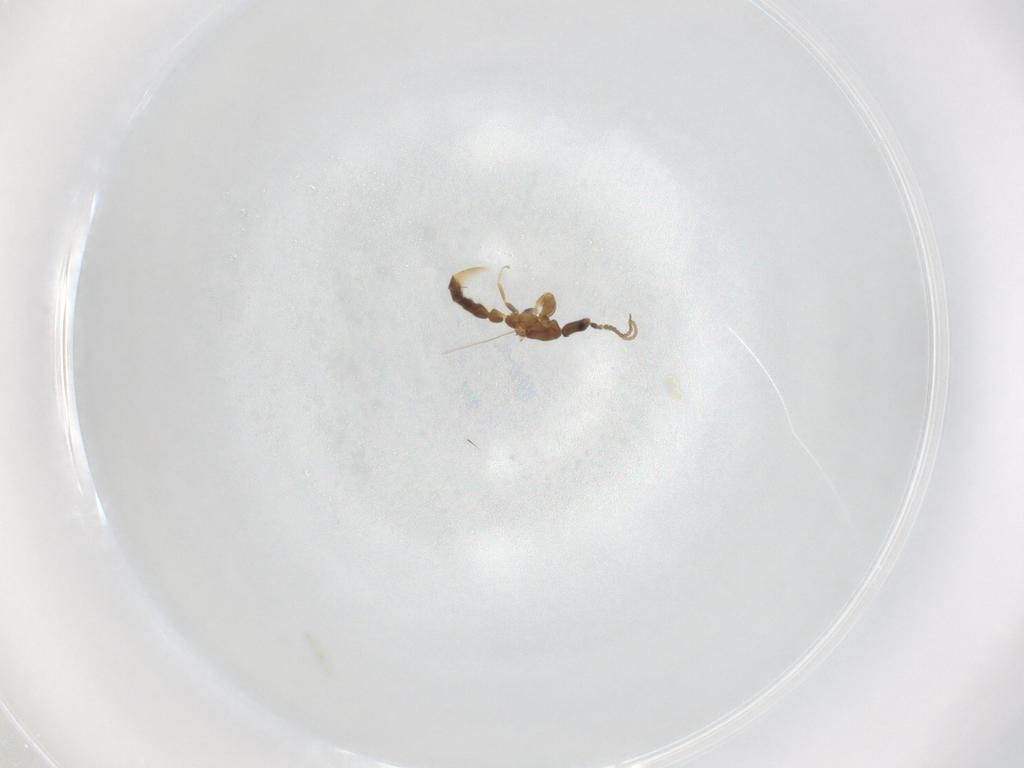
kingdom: Animalia
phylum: Arthropoda
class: Insecta
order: Hymenoptera
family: Formicidae
